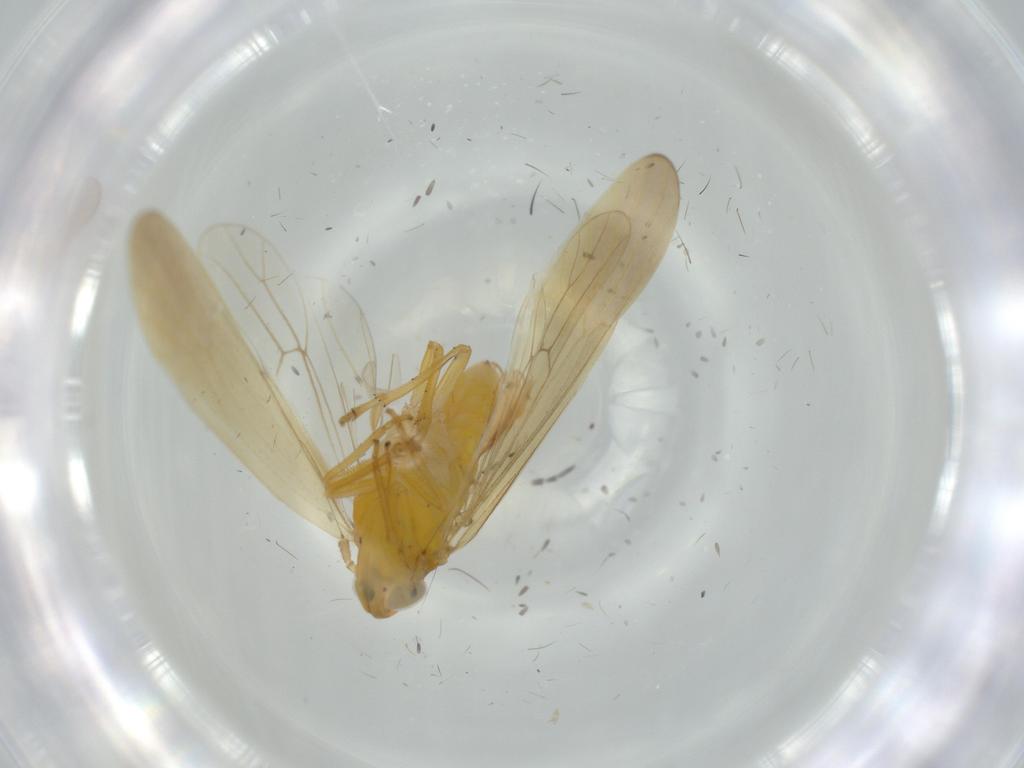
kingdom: Animalia
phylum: Arthropoda
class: Insecta
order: Hemiptera
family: Delphacidae
